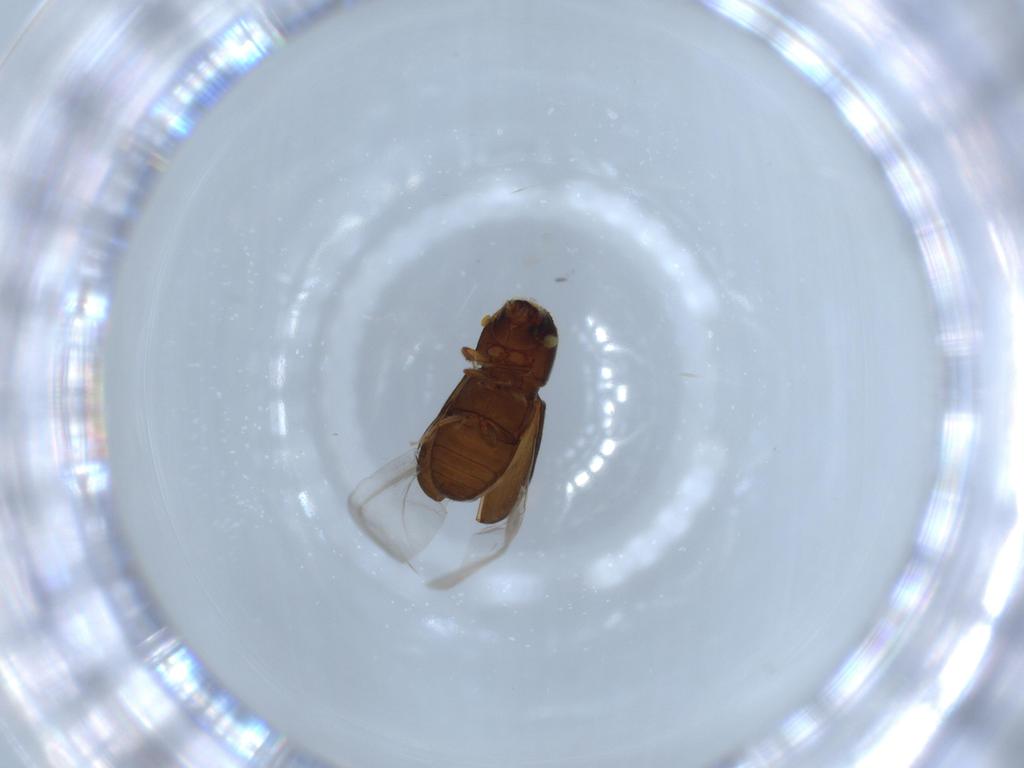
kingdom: Animalia
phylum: Arthropoda
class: Insecta
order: Coleoptera
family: Curculionidae
